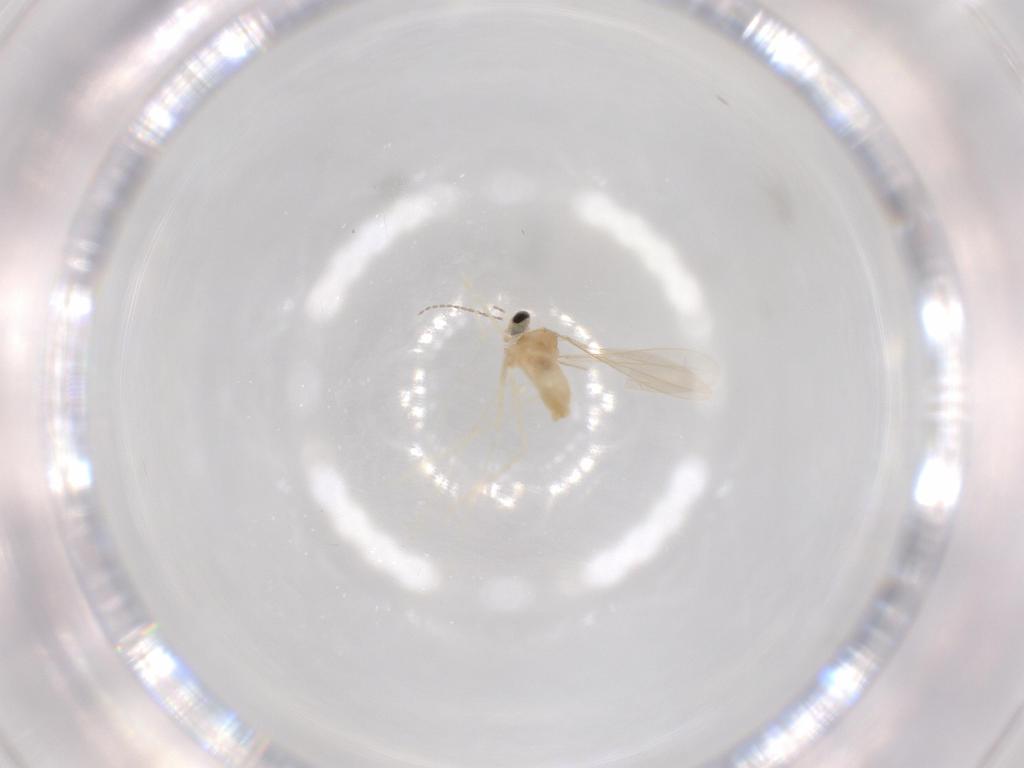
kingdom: Animalia
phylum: Arthropoda
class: Insecta
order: Diptera
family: Cecidomyiidae
